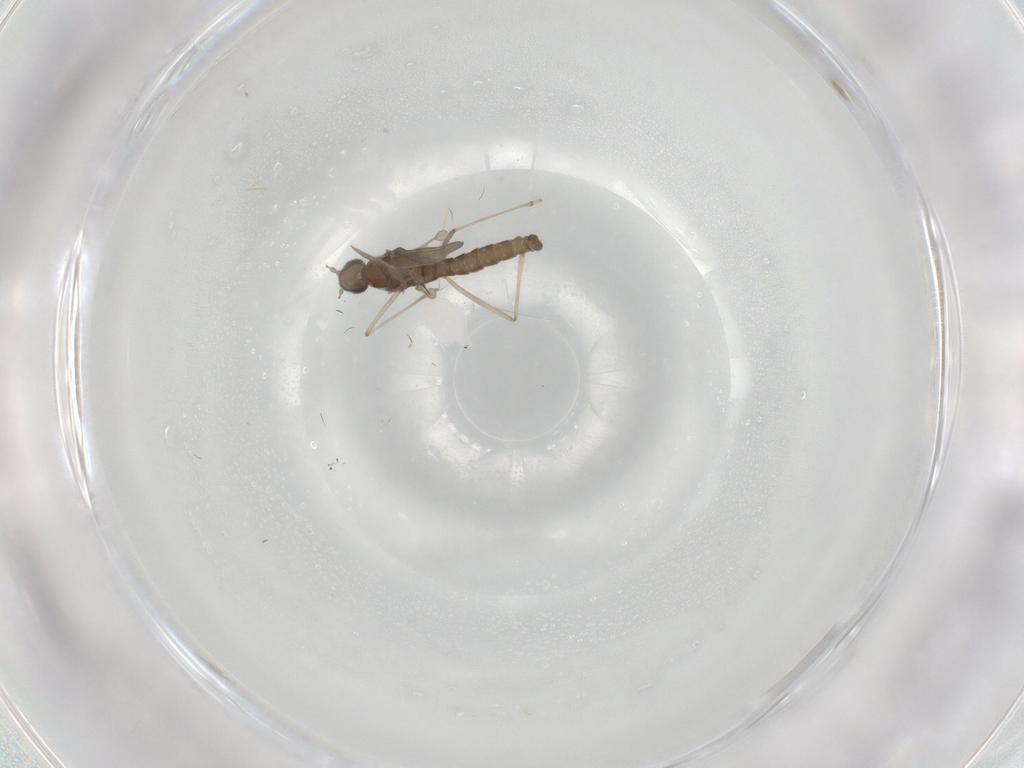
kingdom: Animalia
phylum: Arthropoda
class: Insecta
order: Diptera
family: Cecidomyiidae
